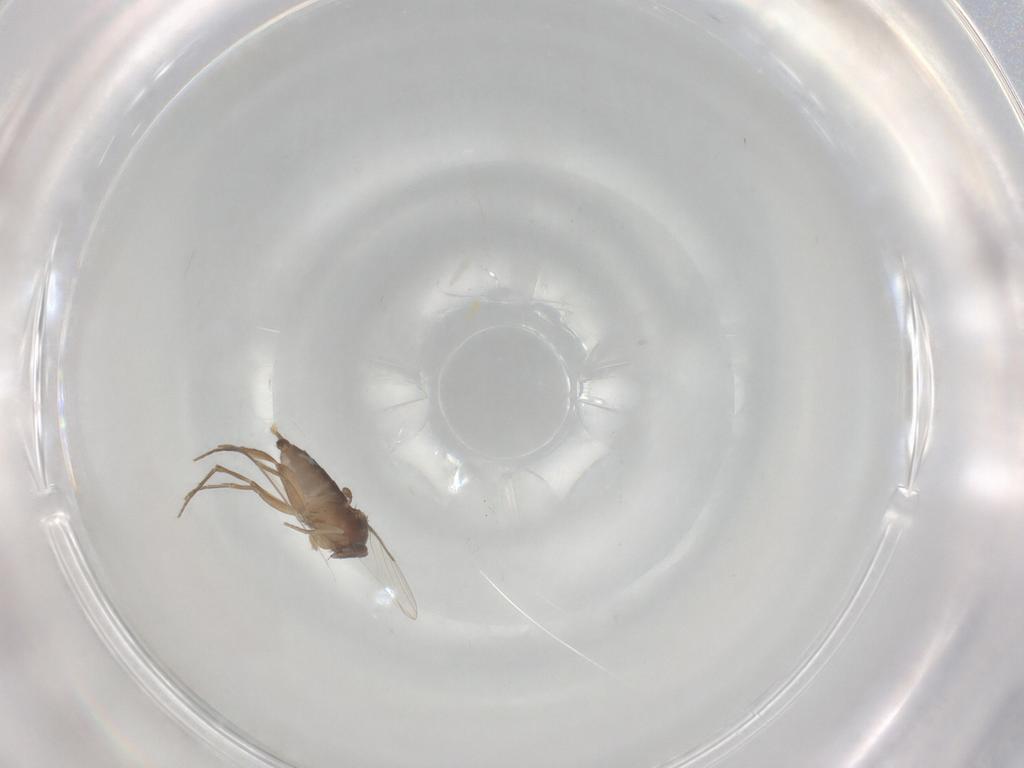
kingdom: Animalia
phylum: Arthropoda
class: Insecta
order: Diptera
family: Phoridae
